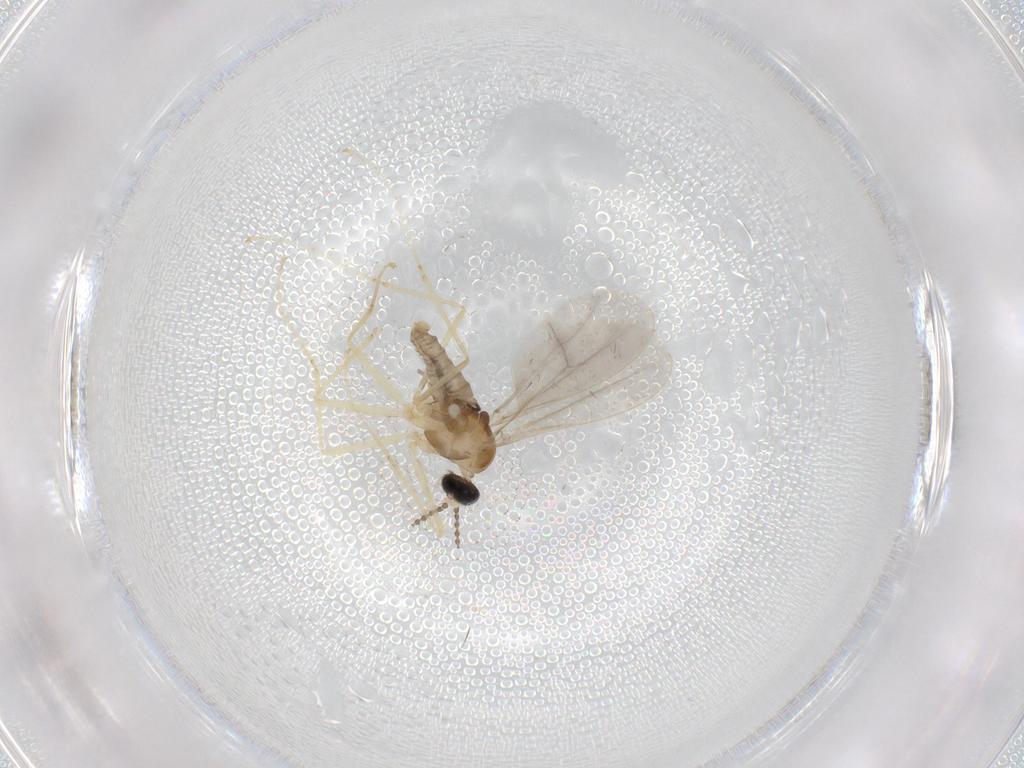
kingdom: Animalia
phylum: Arthropoda
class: Insecta
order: Diptera
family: Cecidomyiidae
